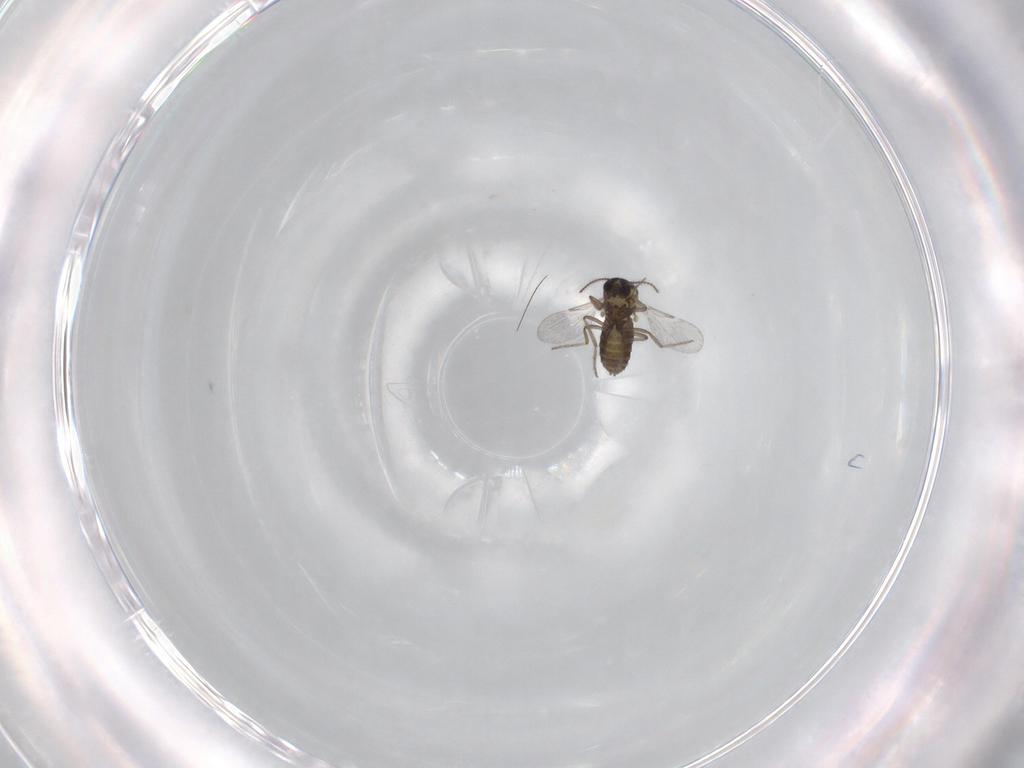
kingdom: Animalia
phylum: Arthropoda
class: Insecta
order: Diptera
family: Ceratopogonidae
